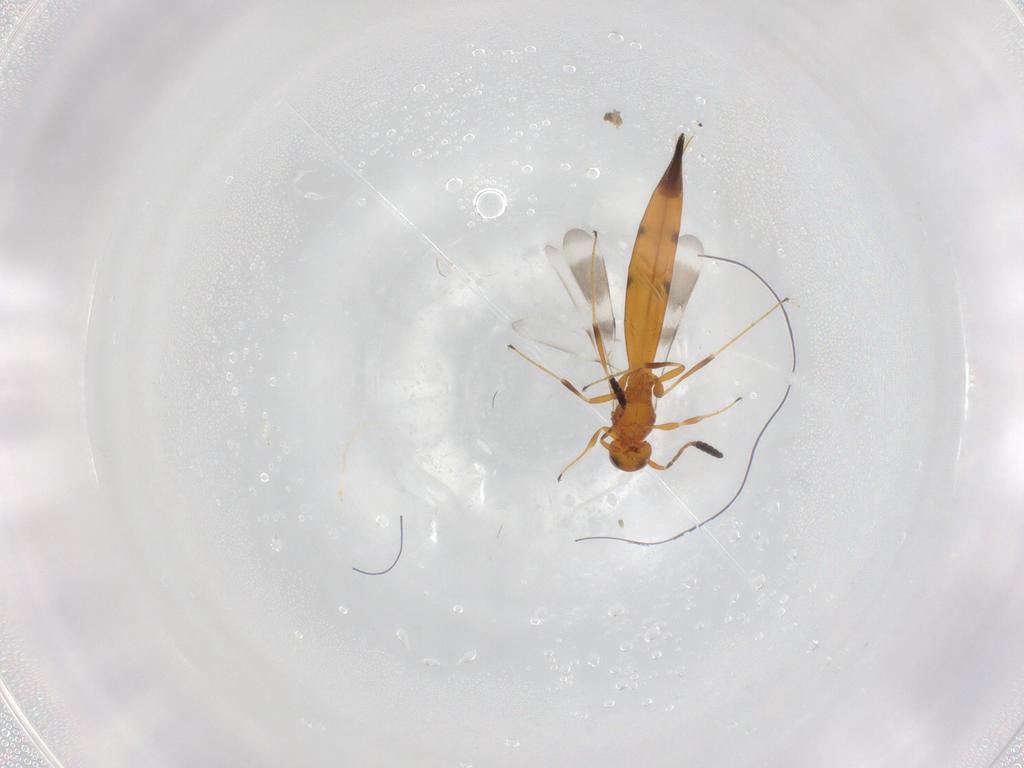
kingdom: Animalia
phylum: Arthropoda
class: Insecta
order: Hymenoptera
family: Scelionidae
